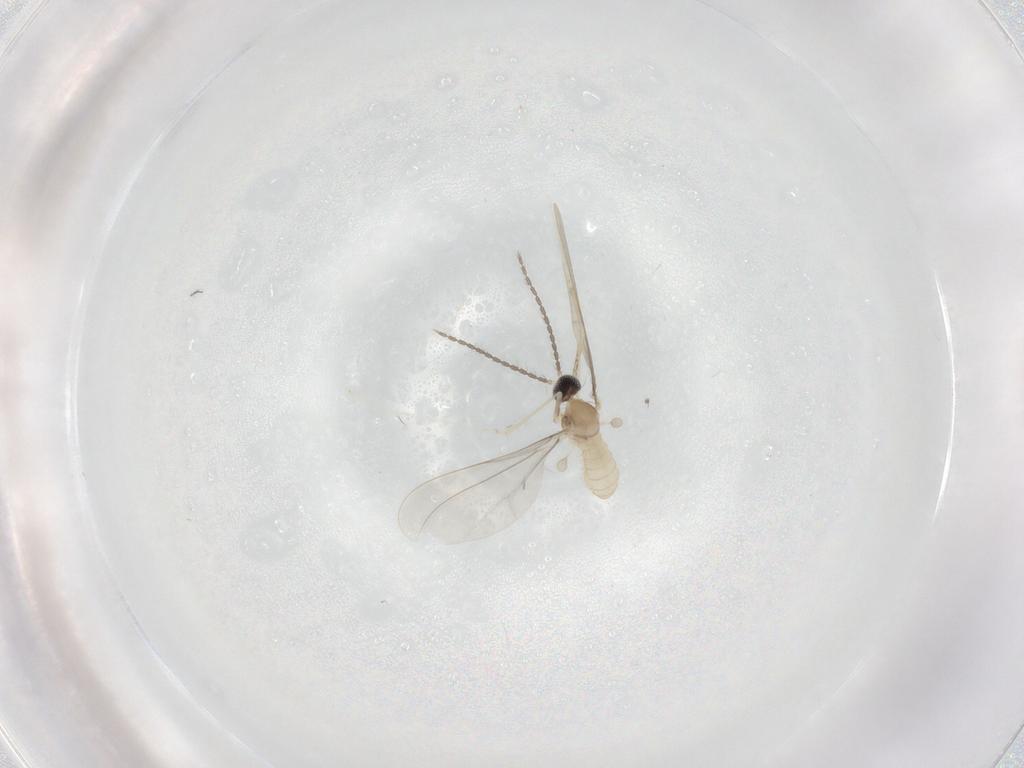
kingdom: Animalia
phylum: Arthropoda
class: Insecta
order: Diptera
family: Cecidomyiidae
